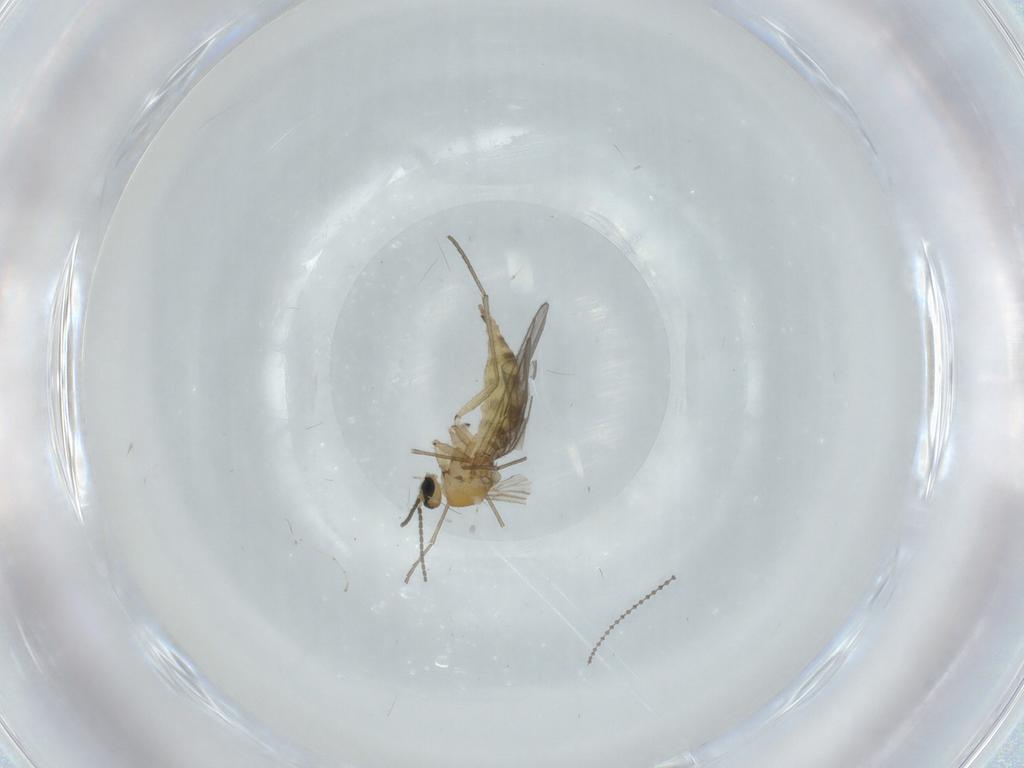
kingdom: Animalia
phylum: Arthropoda
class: Insecta
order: Diptera
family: Sciaridae
